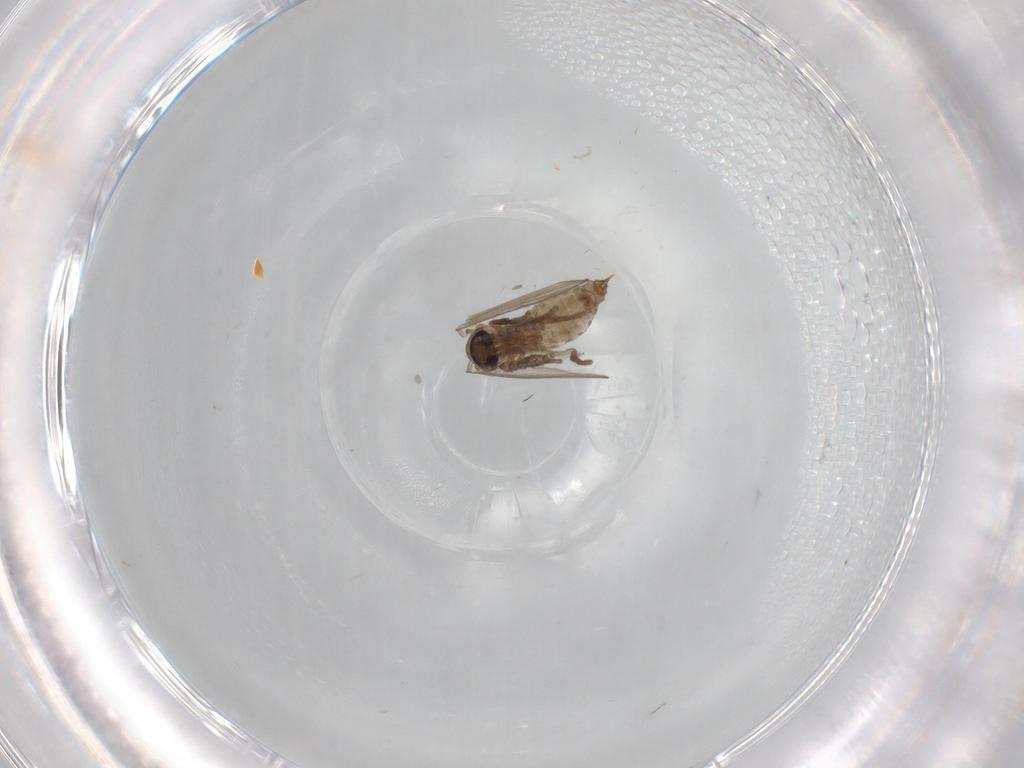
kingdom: Animalia
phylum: Arthropoda
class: Insecta
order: Diptera
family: Psychodidae
